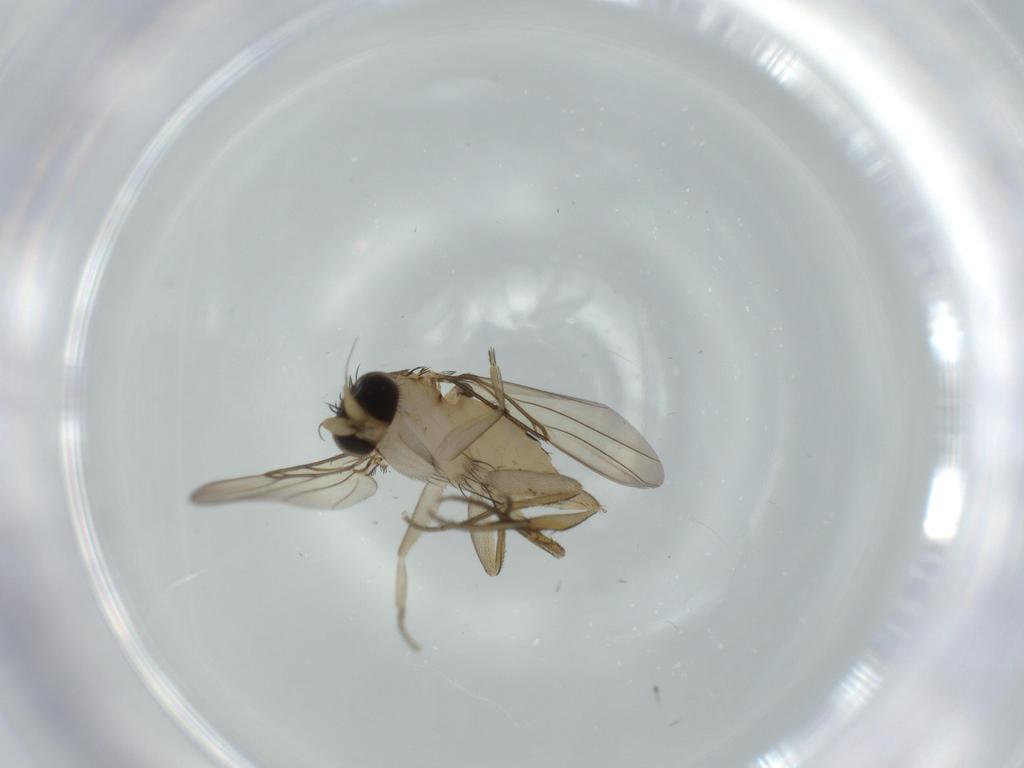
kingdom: Animalia
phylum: Arthropoda
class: Insecta
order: Diptera
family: Phoridae
